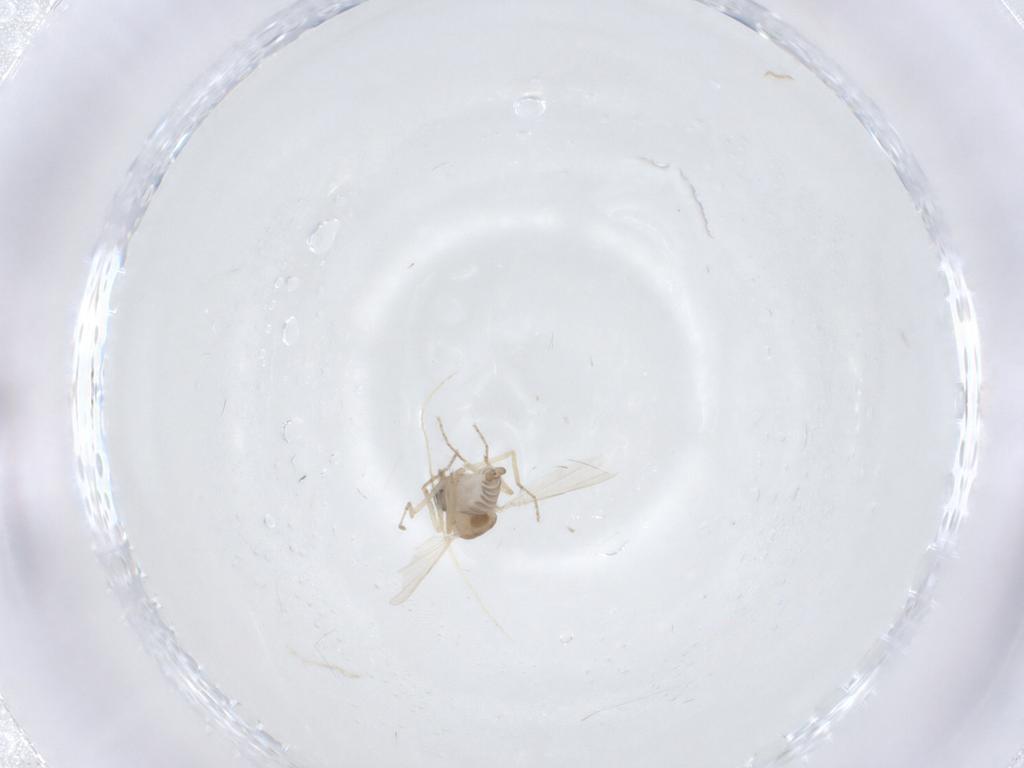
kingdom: Animalia
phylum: Arthropoda
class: Insecta
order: Diptera
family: Ceratopogonidae
